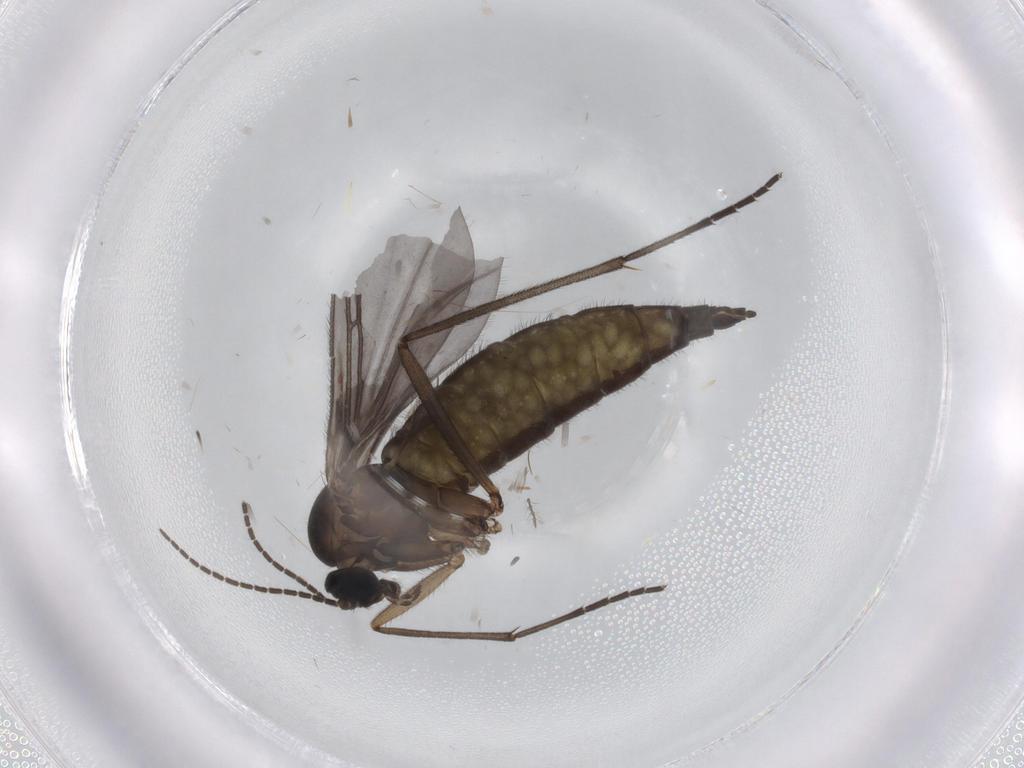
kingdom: Animalia
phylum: Arthropoda
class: Insecta
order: Diptera
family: Sciaridae
